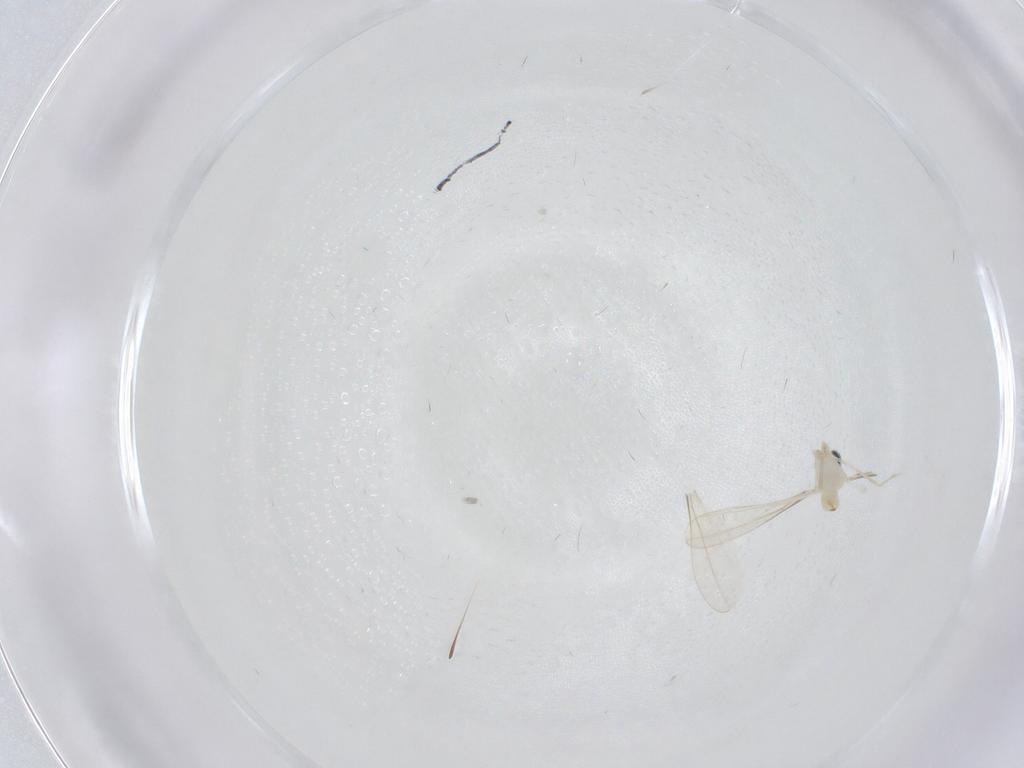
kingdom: Animalia
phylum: Arthropoda
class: Insecta
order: Diptera
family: Cecidomyiidae
